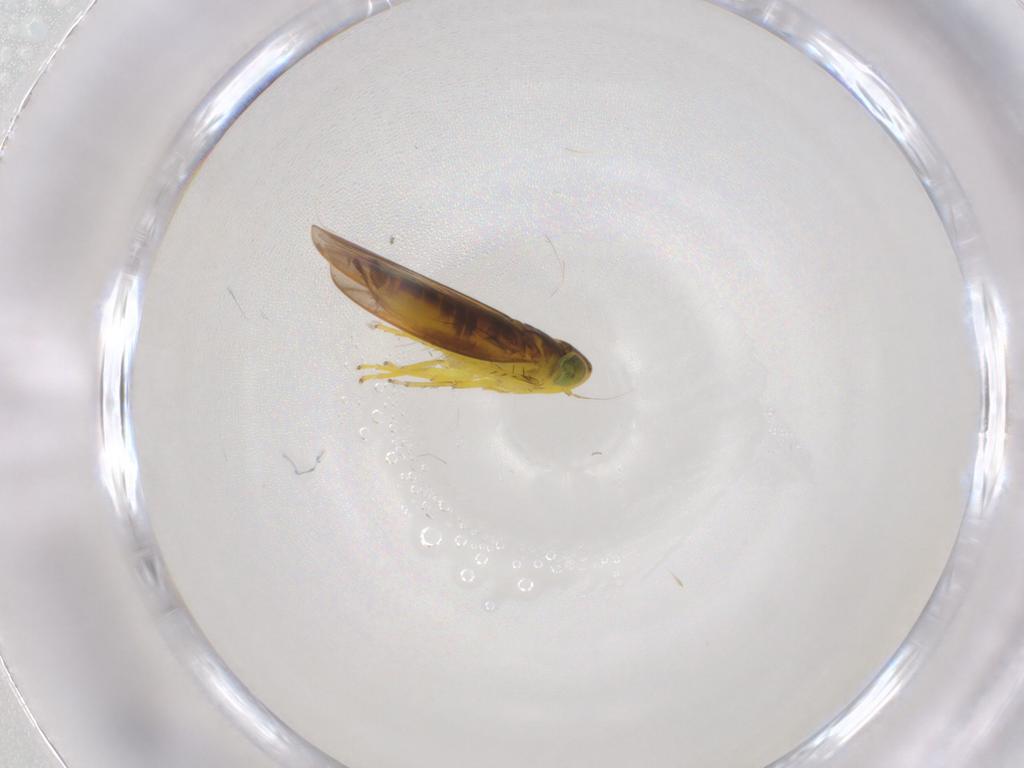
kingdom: Animalia
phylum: Arthropoda
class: Insecta
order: Hemiptera
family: Cicadellidae
